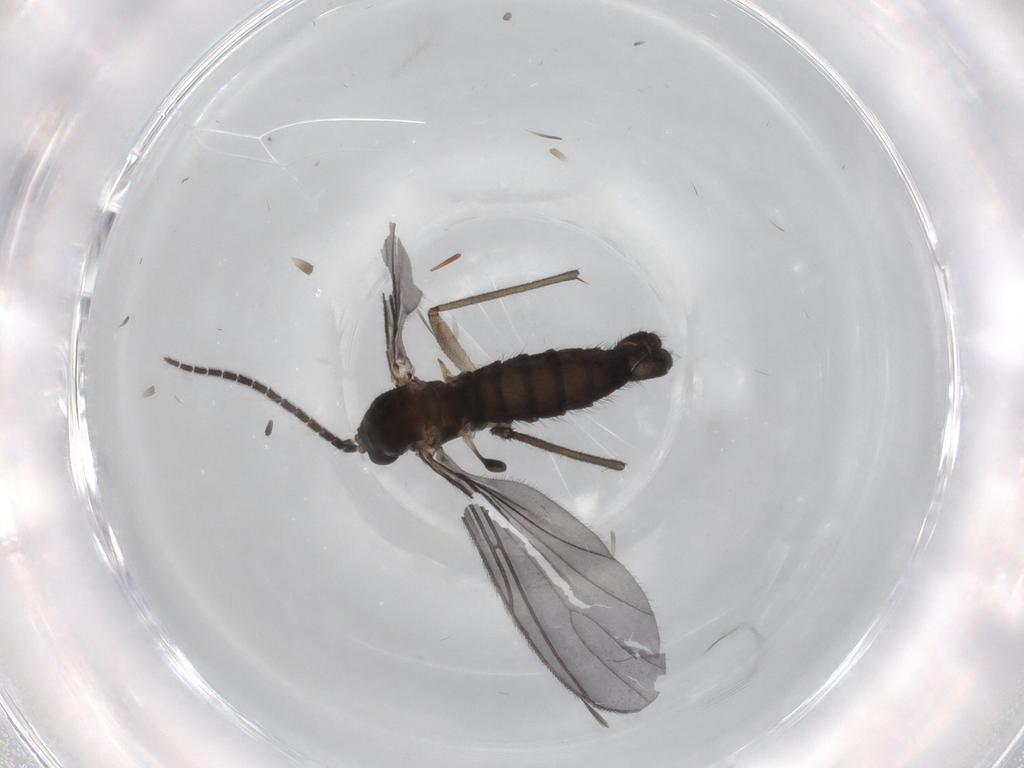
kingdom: Animalia
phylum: Arthropoda
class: Insecta
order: Diptera
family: Sciaridae
